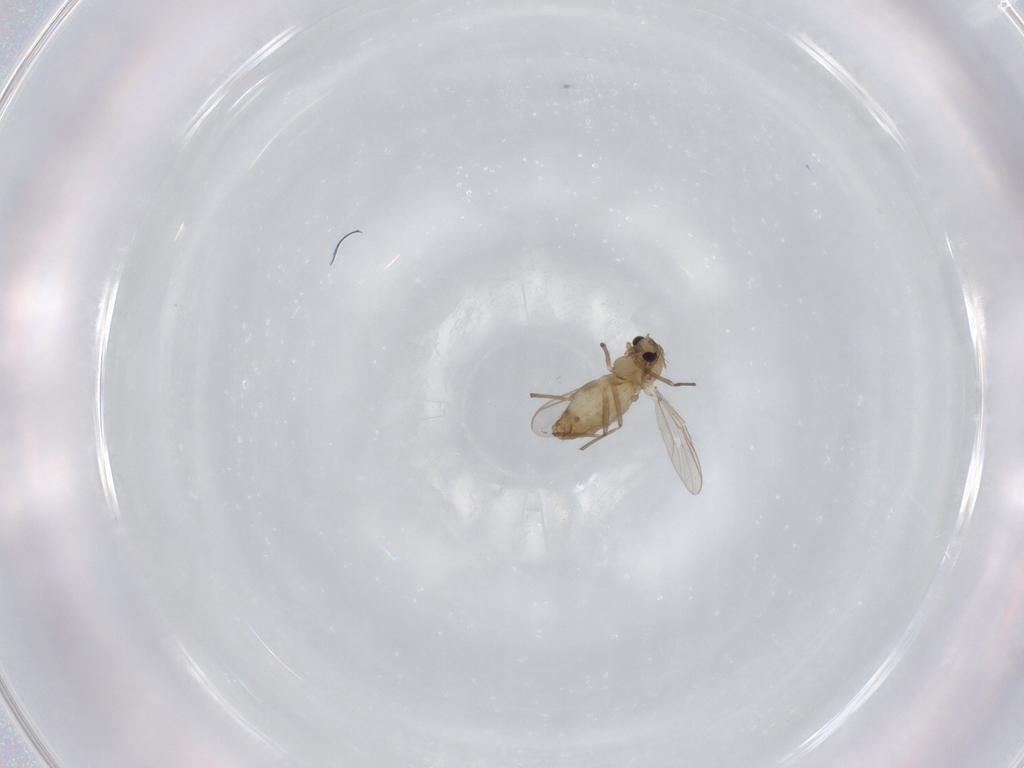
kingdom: Animalia
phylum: Arthropoda
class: Insecta
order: Diptera
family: Chironomidae
